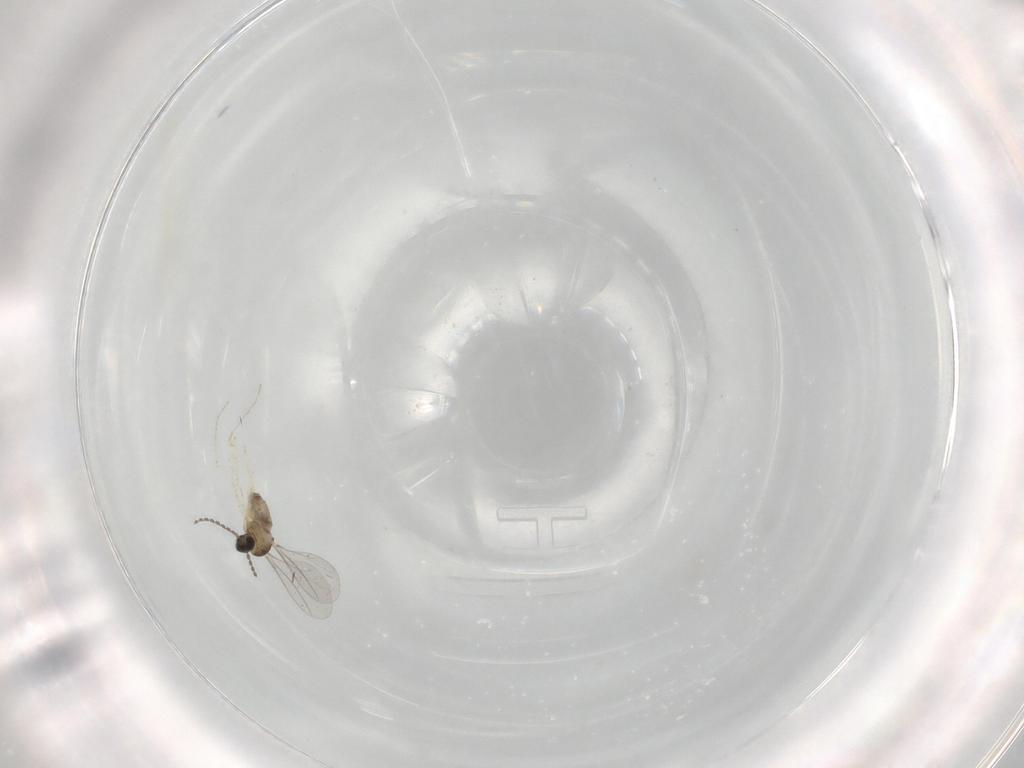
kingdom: Animalia
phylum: Arthropoda
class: Insecta
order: Diptera
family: Cecidomyiidae
